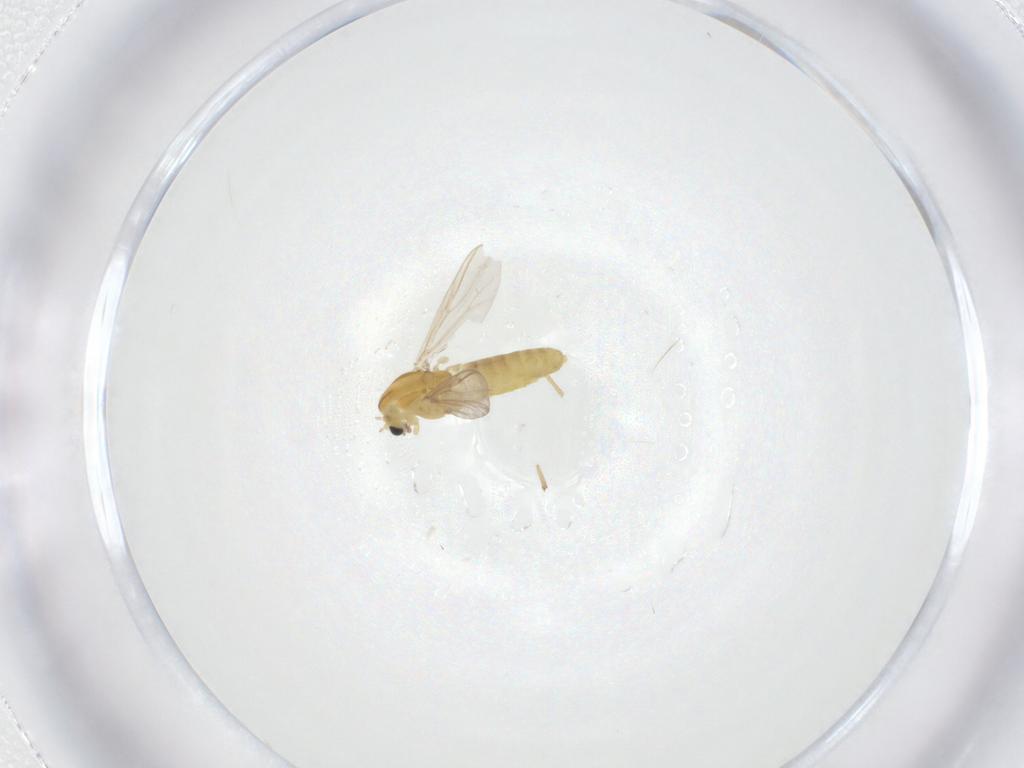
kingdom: Animalia
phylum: Arthropoda
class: Insecta
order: Diptera
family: Chironomidae
